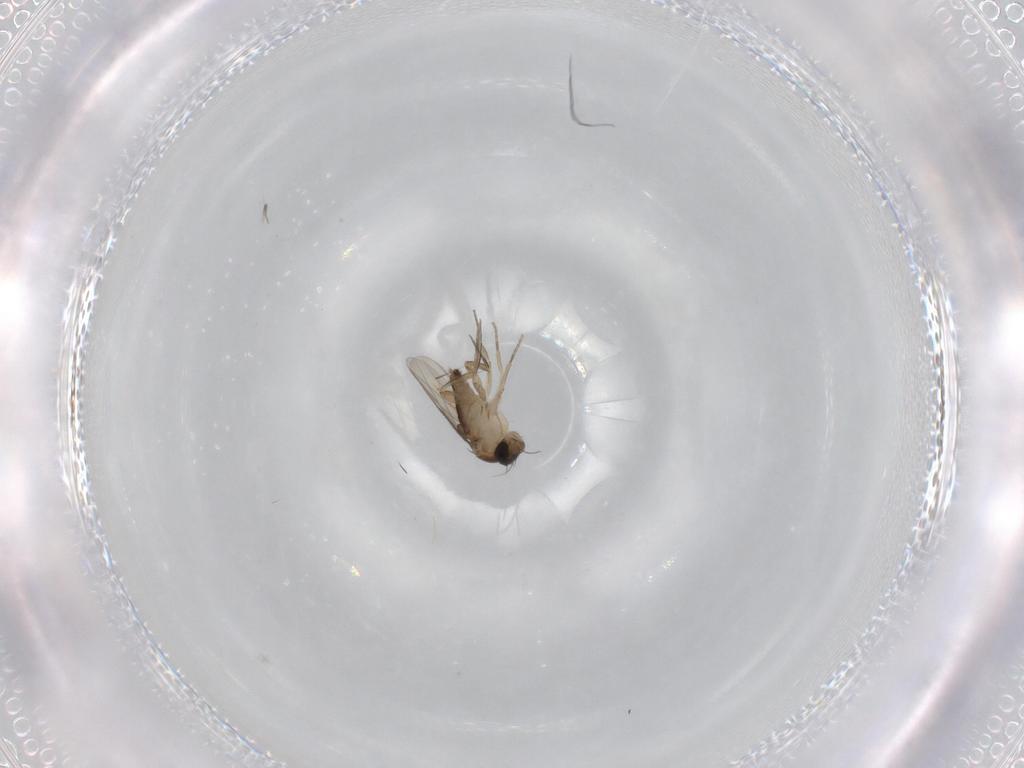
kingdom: Animalia
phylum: Arthropoda
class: Insecta
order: Diptera
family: Phoridae
